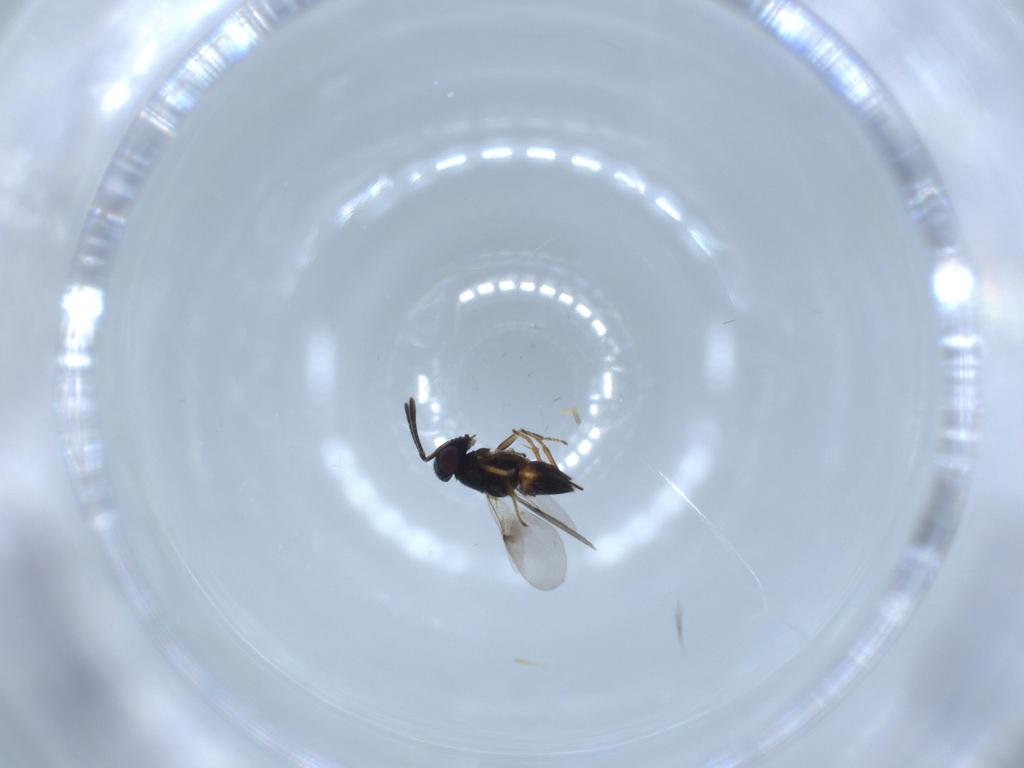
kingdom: Animalia
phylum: Arthropoda
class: Insecta
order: Hymenoptera
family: Encyrtidae
